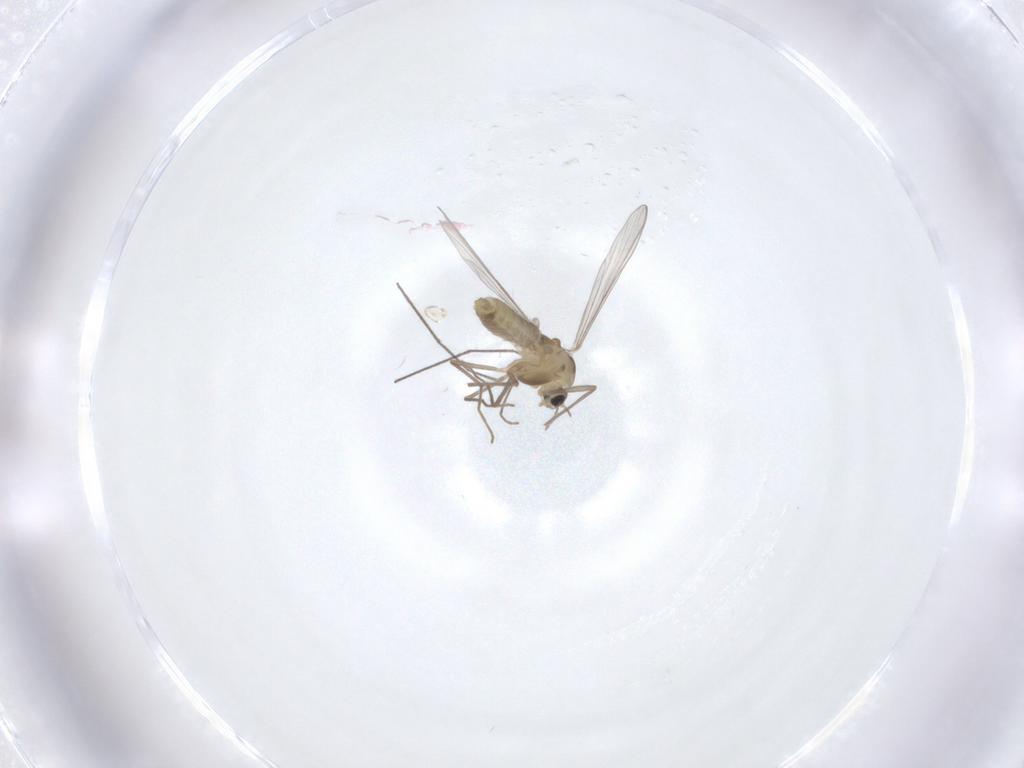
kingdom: Animalia
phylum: Arthropoda
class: Insecta
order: Diptera
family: Chironomidae
